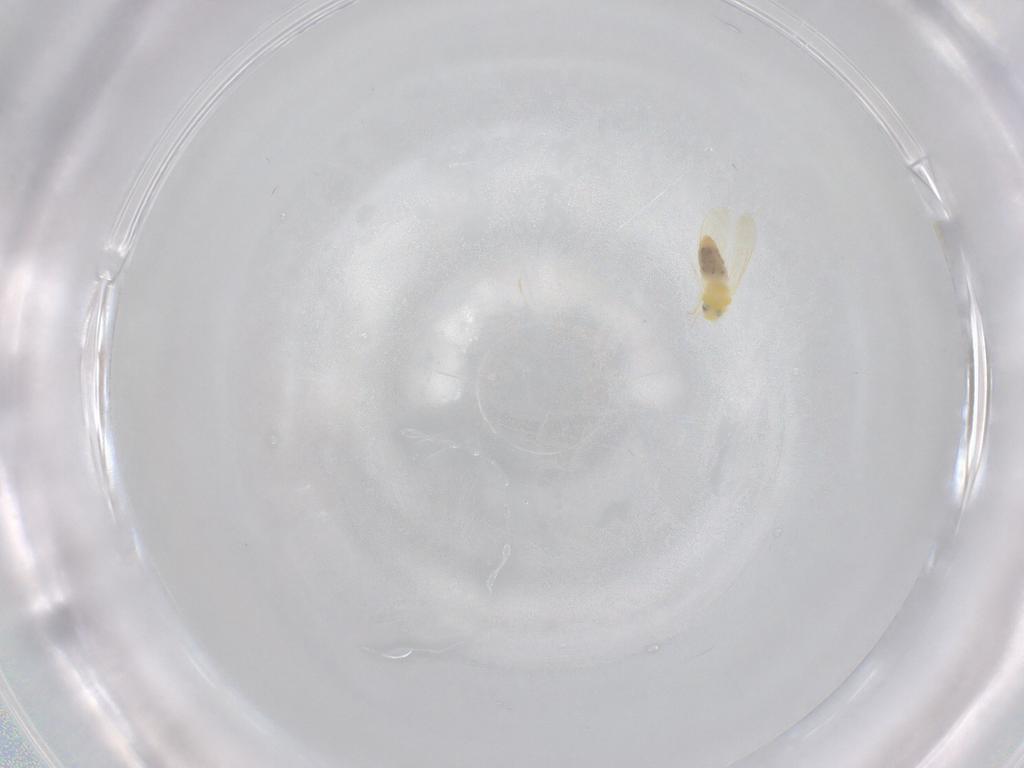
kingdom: Animalia
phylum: Arthropoda
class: Insecta
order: Hemiptera
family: Aleyrodidae
